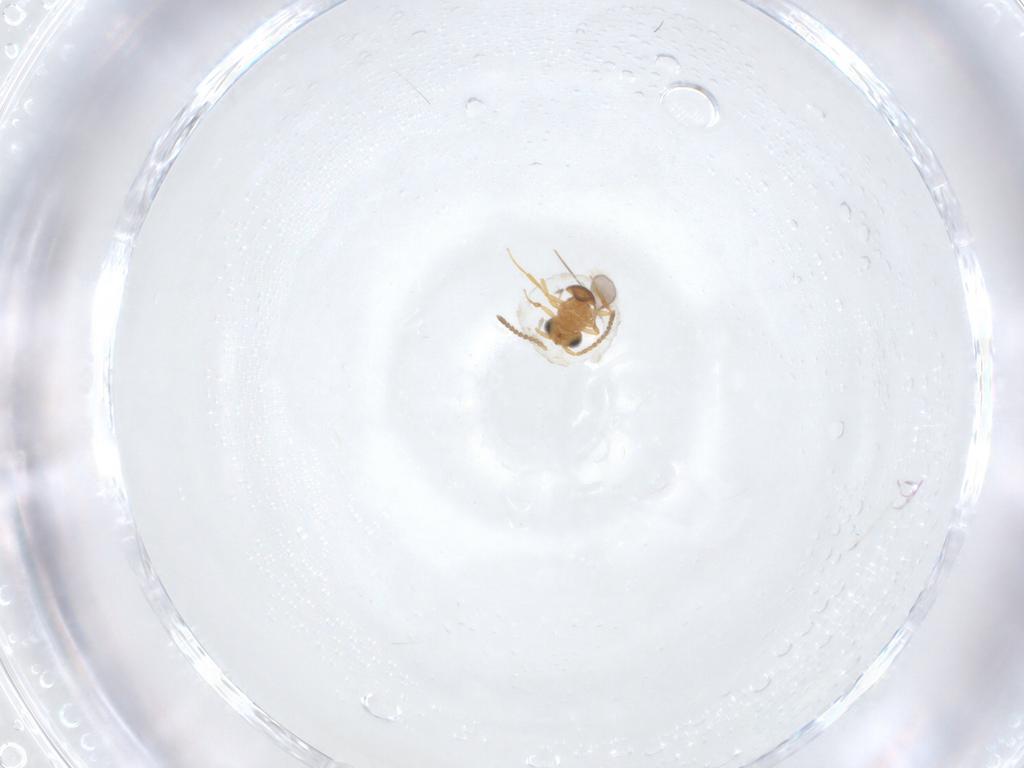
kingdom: Animalia
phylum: Arthropoda
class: Insecta
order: Hymenoptera
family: Scelionidae
